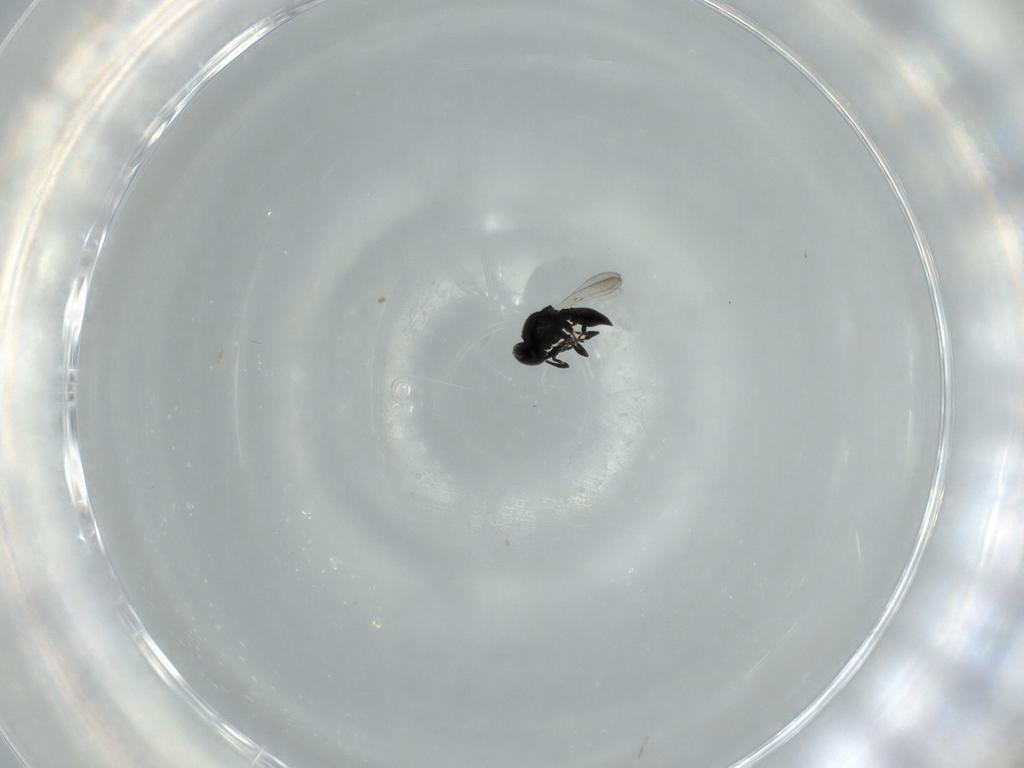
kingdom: Animalia
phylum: Arthropoda
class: Insecta
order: Hymenoptera
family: Platygastridae
